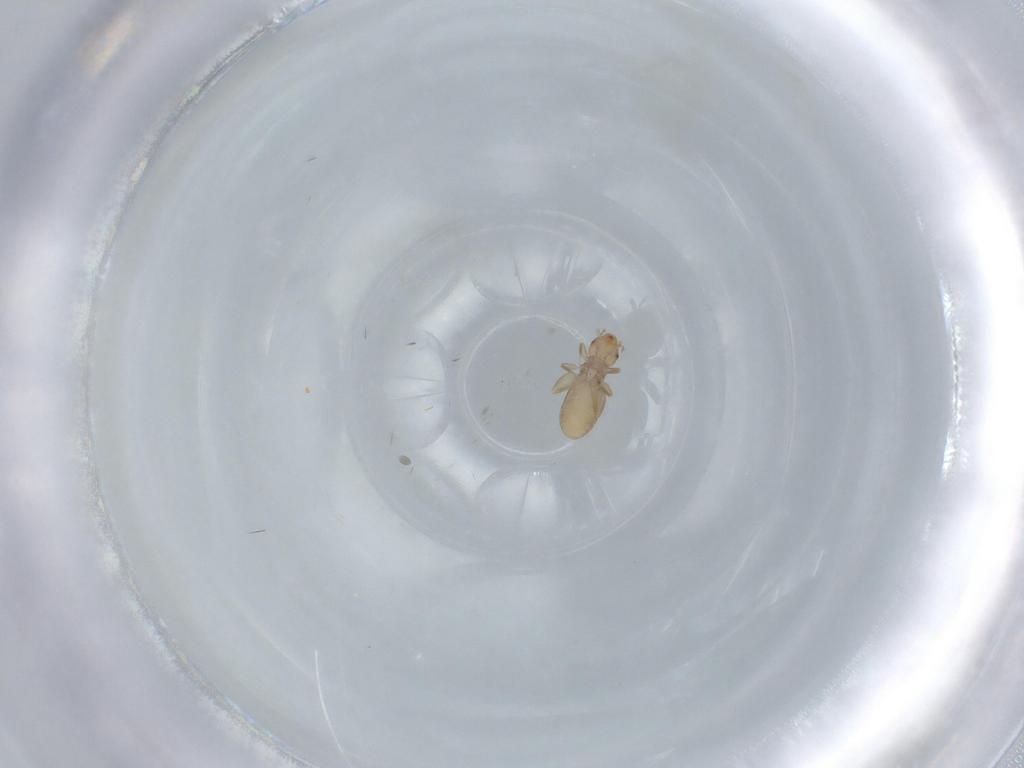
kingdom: Animalia
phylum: Arthropoda
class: Insecta
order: Psocodea
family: Liposcelididae
